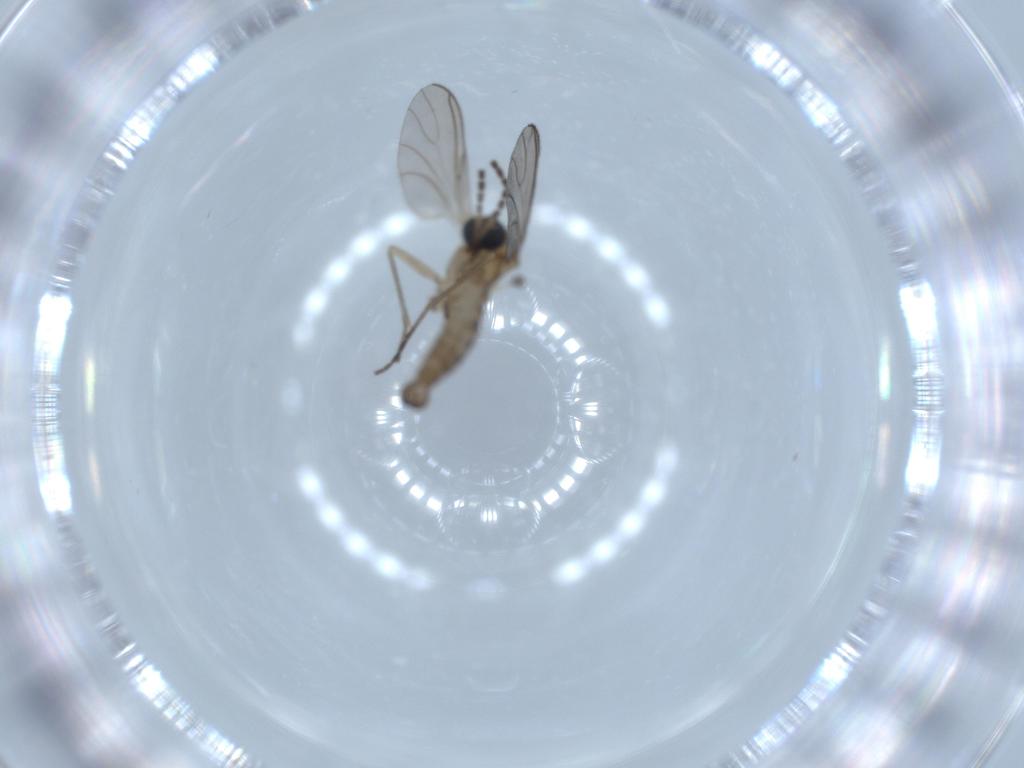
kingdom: Animalia
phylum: Arthropoda
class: Insecta
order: Diptera
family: Sciaridae
